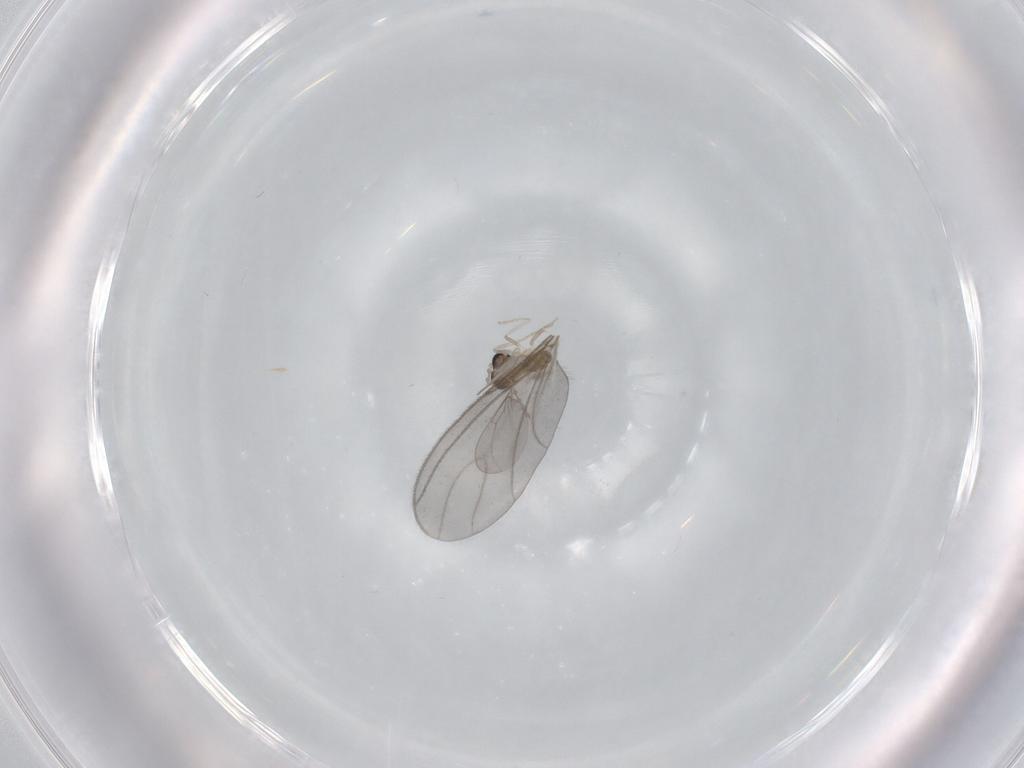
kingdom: Animalia
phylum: Arthropoda
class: Insecta
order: Diptera
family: Cecidomyiidae
